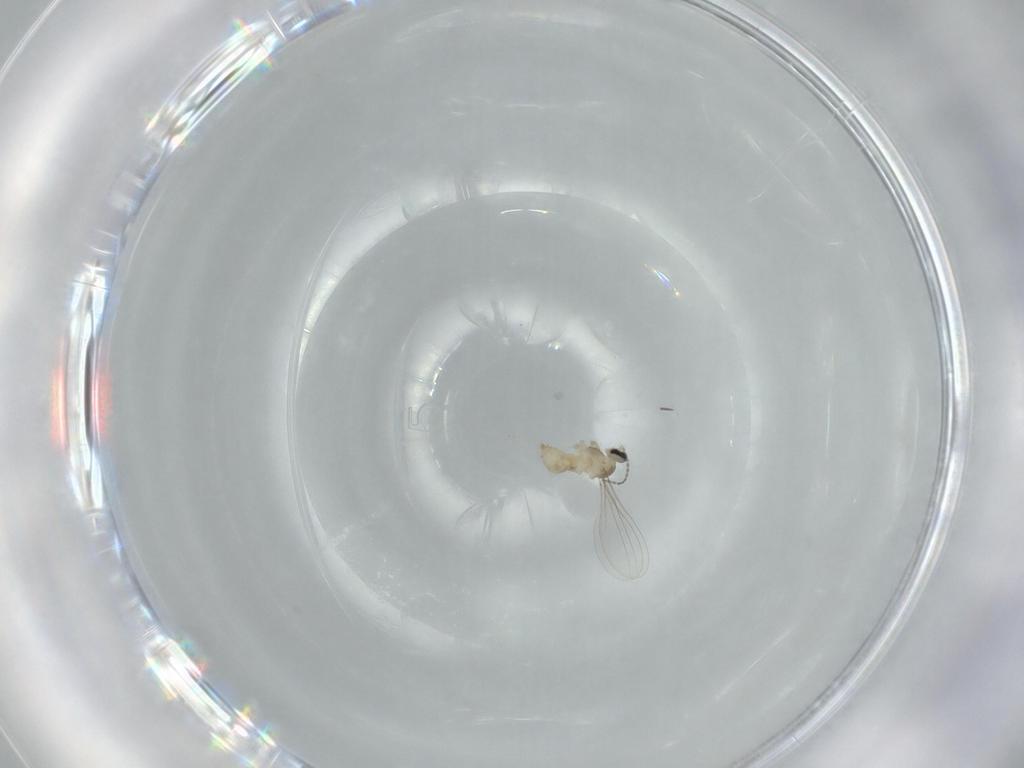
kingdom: Animalia
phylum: Arthropoda
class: Insecta
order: Diptera
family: Cecidomyiidae
